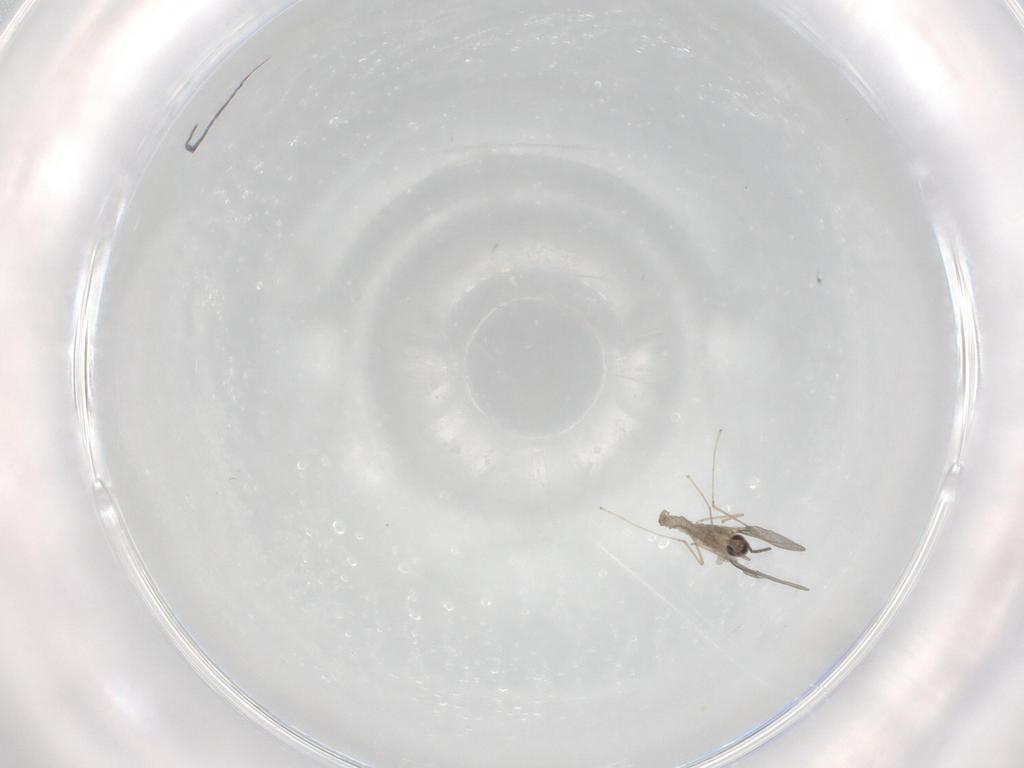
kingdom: Animalia
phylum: Arthropoda
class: Insecta
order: Diptera
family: Cecidomyiidae
